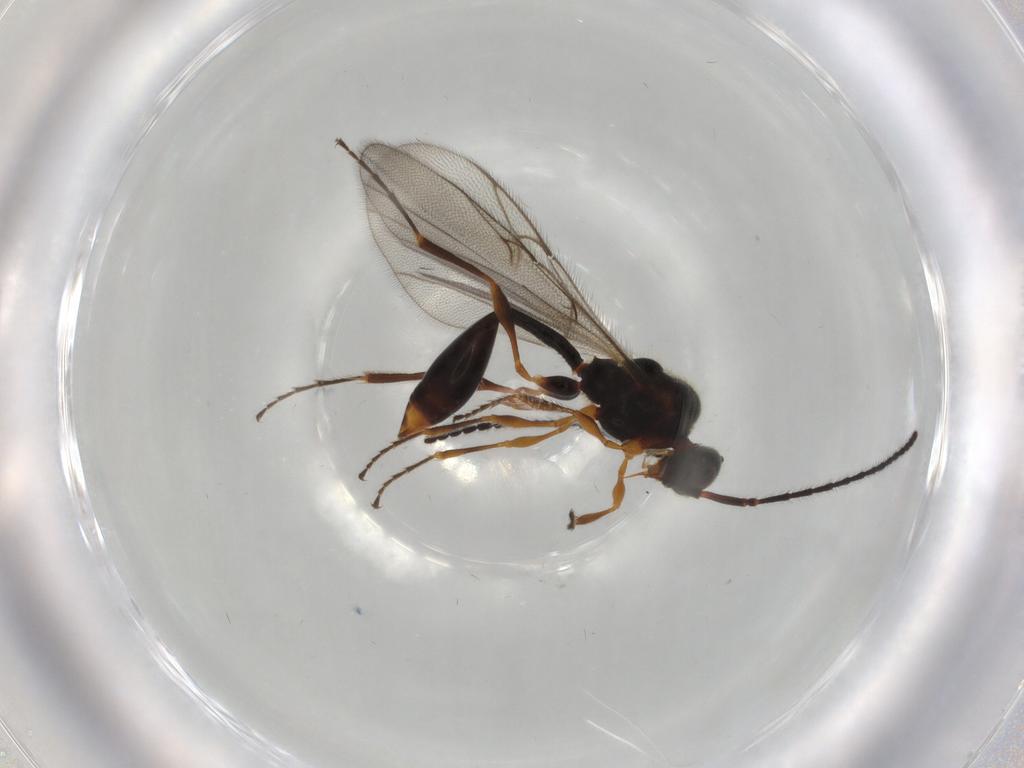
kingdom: Animalia
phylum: Arthropoda
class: Insecta
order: Hymenoptera
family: Diapriidae
